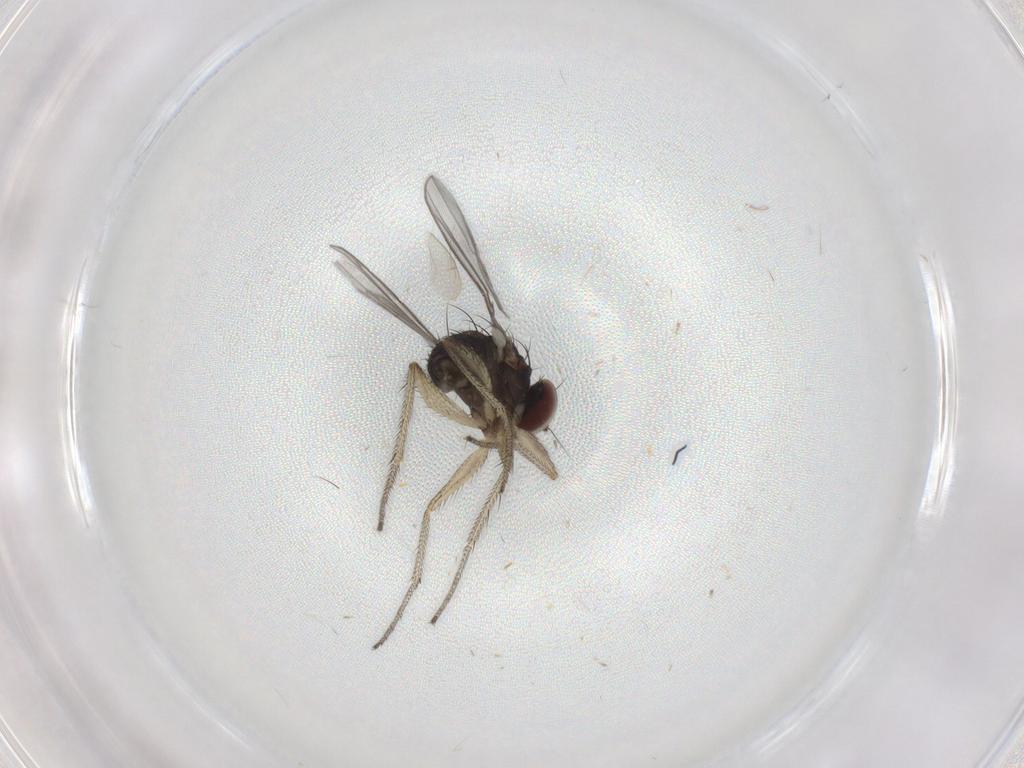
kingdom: Animalia
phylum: Arthropoda
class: Insecta
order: Diptera
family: Dolichopodidae
